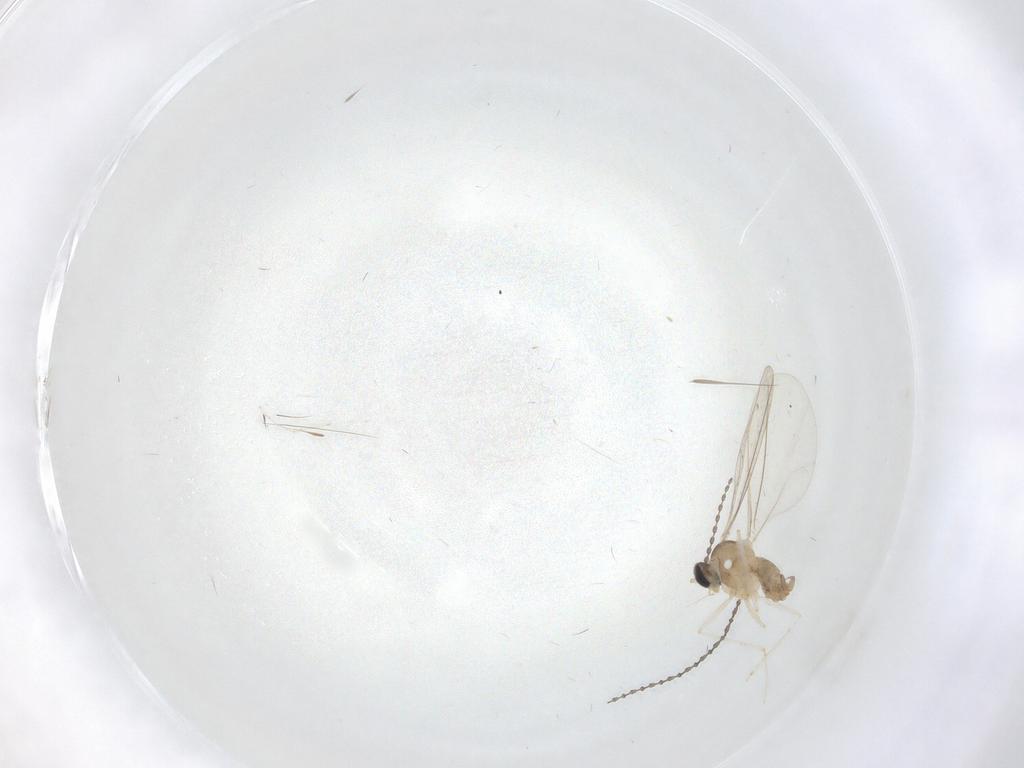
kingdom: Animalia
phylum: Arthropoda
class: Insecta
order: Diptera
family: Cecidomyiidae
